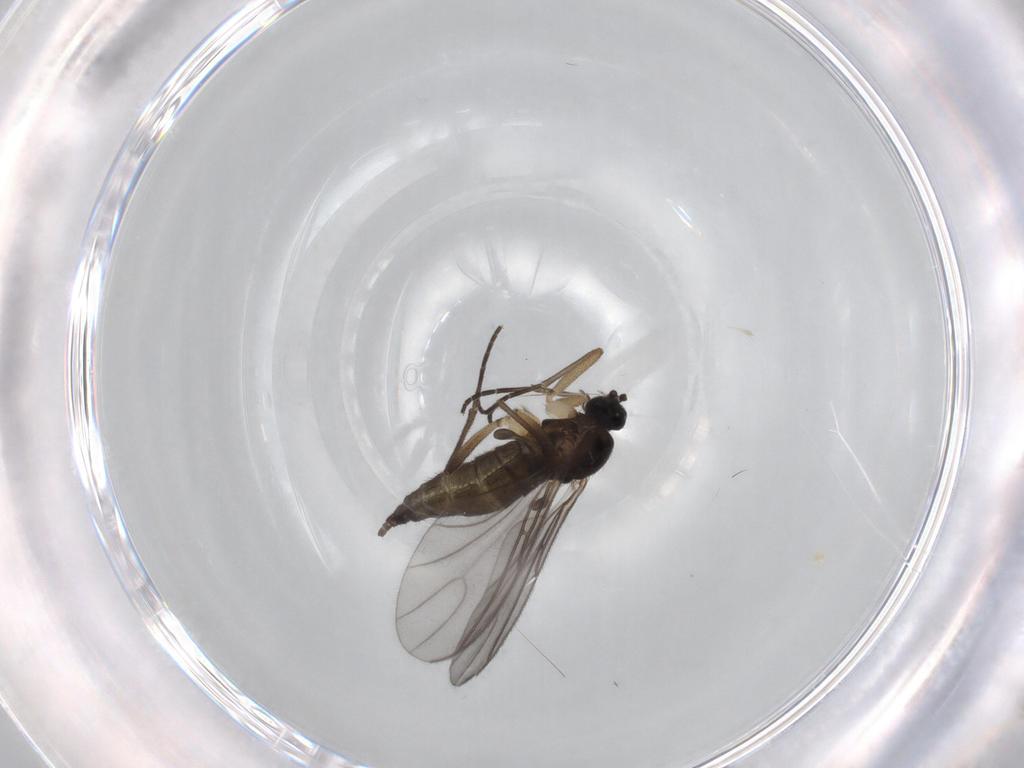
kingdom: Animalia
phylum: Arthropoda
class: Insecta
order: Diptera
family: Sciaridae
